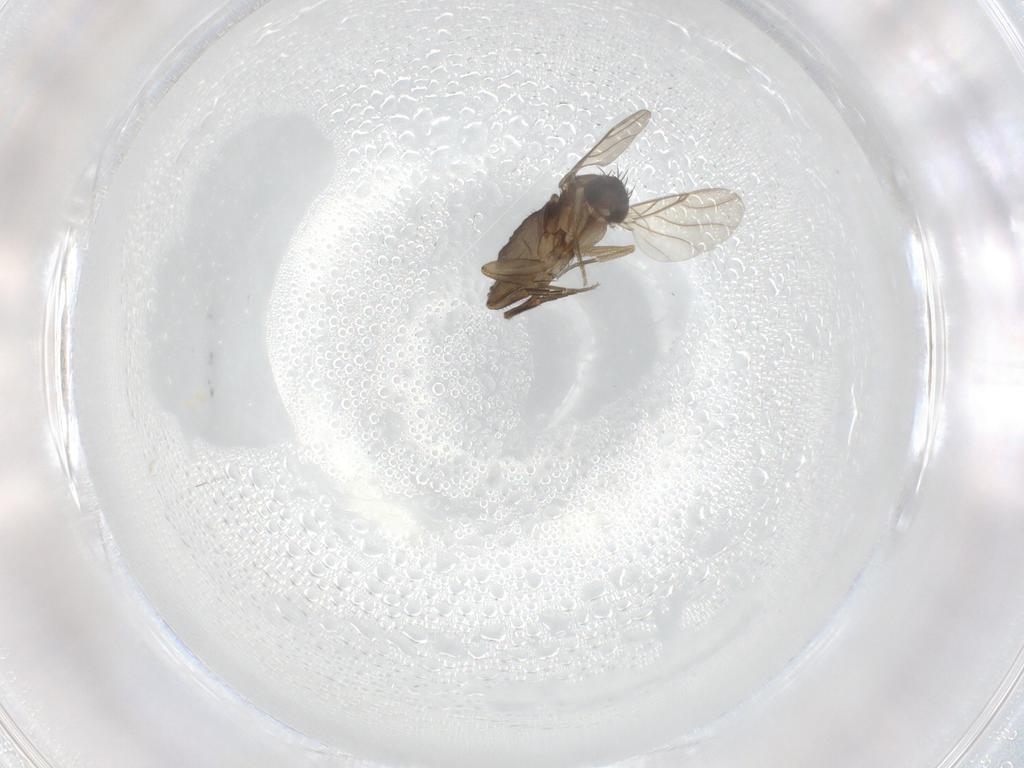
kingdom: Animalia
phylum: Arthropoda
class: Insecta
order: Diptera
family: Phoridae
